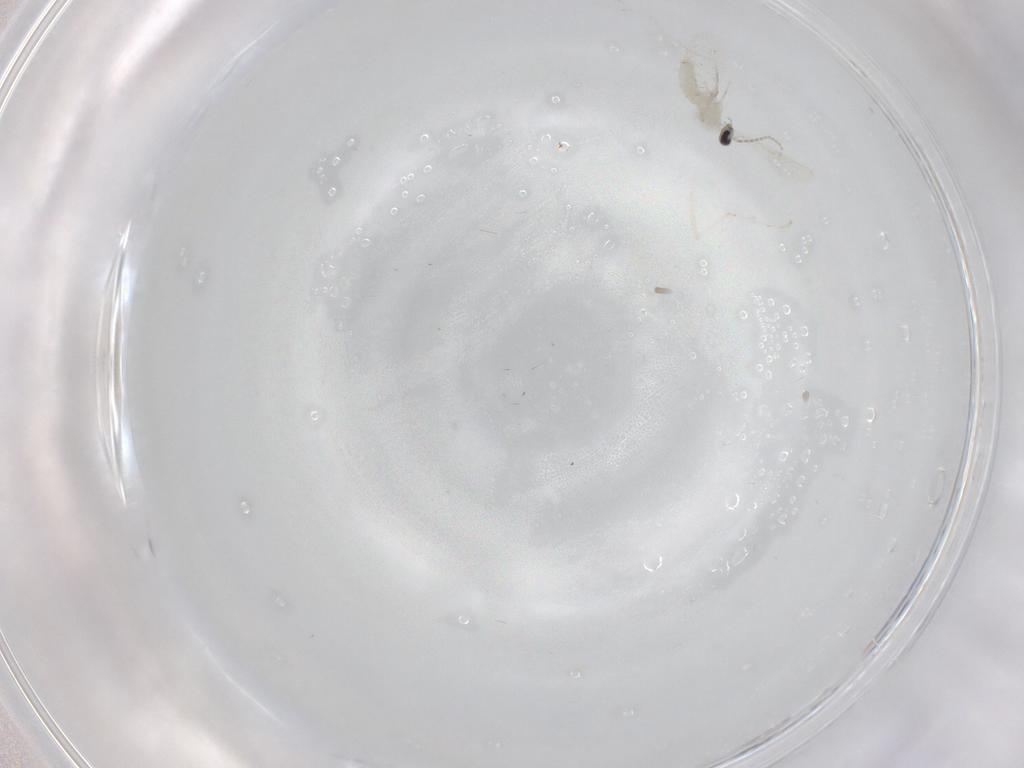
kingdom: Animalia
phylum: Arthropoda
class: Insecta
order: Diptera
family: Cecidomyiidae
